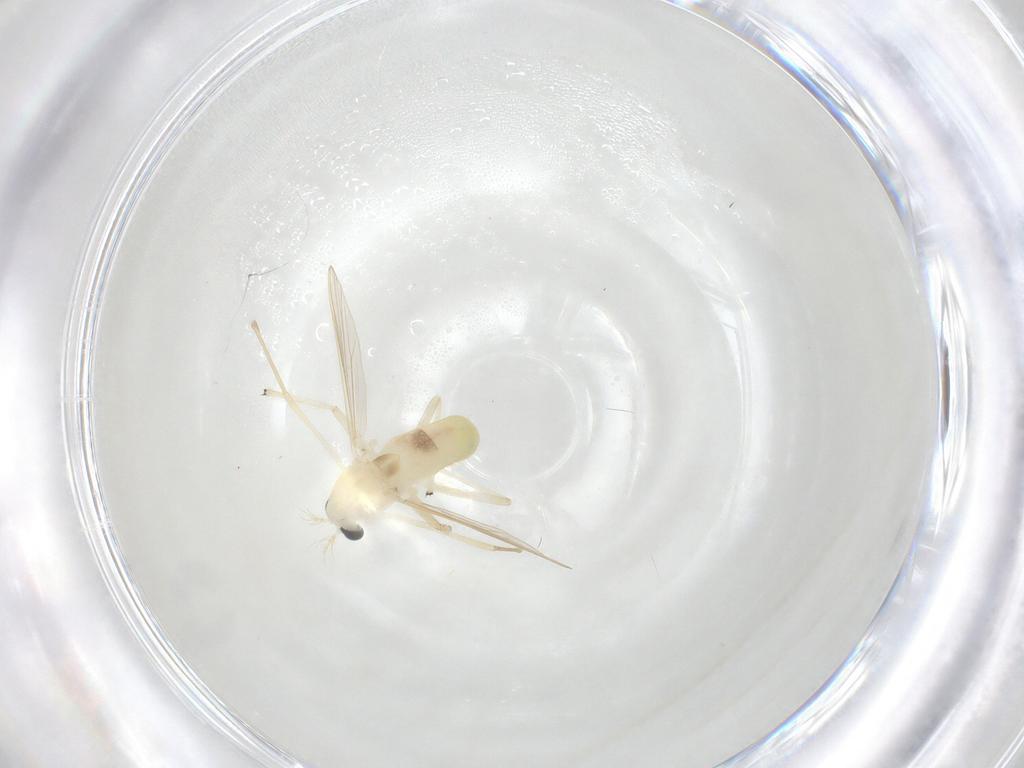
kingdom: Animalia
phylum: Arthropoda
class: Insecta
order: Diptera
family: Chironomidae
